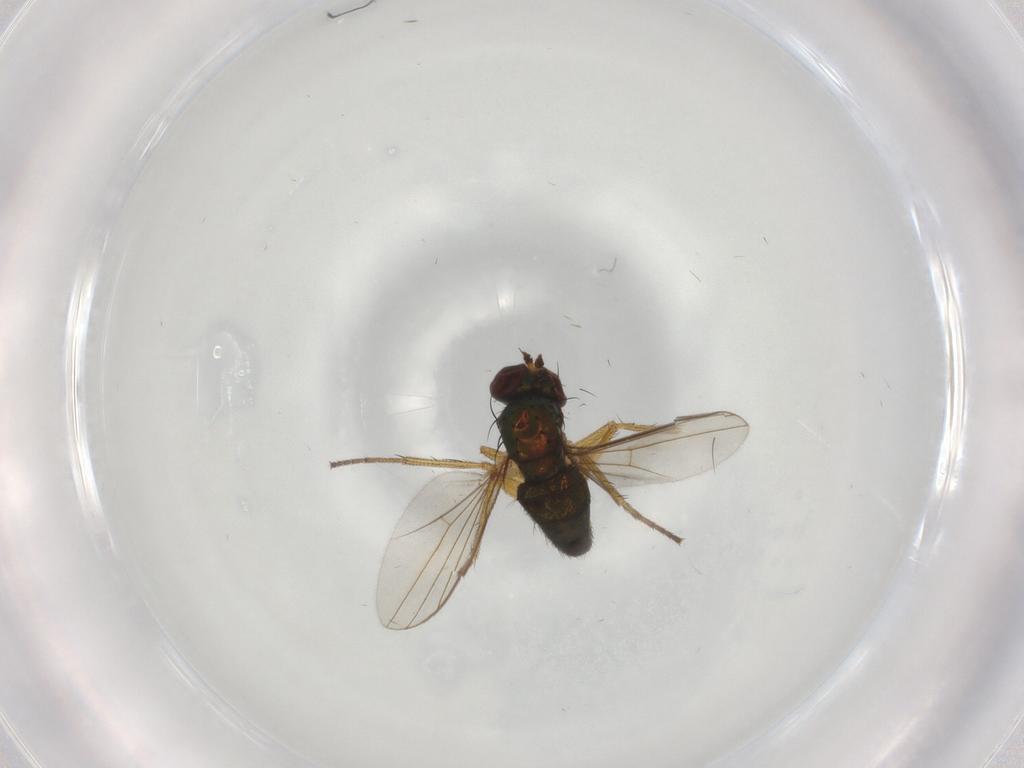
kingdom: Animalia
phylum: Arthropoda
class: Insecta
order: Diptera
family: Dolichopodidae
